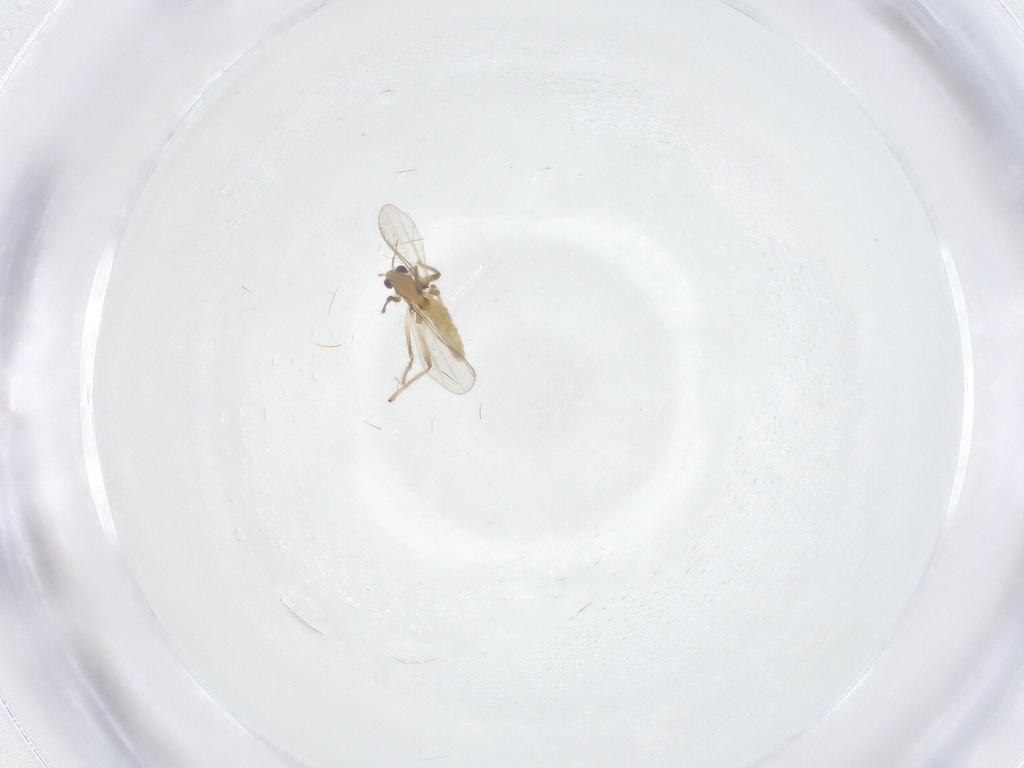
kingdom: Animalia
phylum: Arthropoda
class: Insecta
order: Diptera
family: Chironomidae
